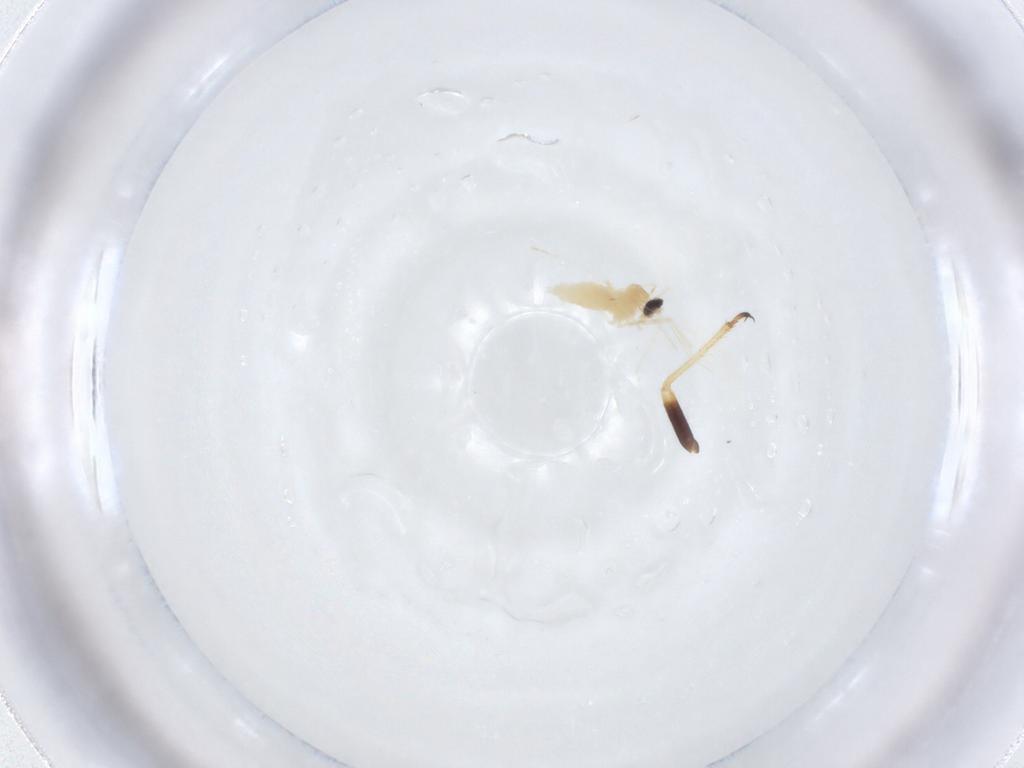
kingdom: Animalia
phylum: Arthropoda
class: Insecta
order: Diptera
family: Cecidomyiidae
